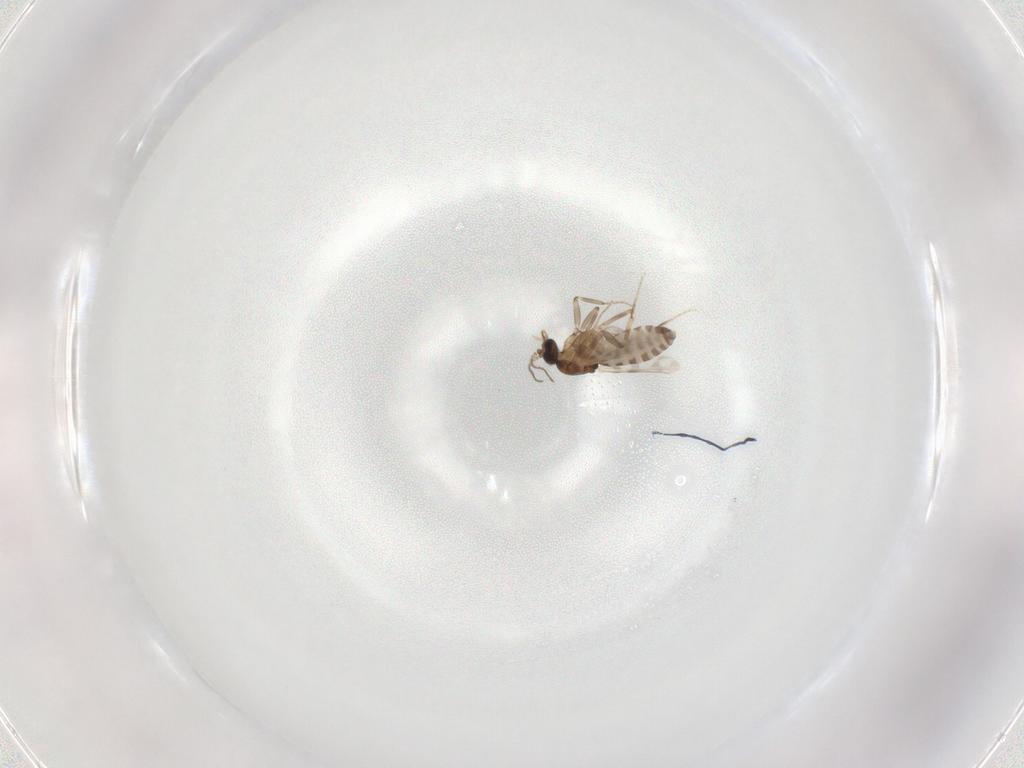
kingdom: Animalia
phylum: Arthropoda
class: Insecta
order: Diptera
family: Ceratopogonidae
